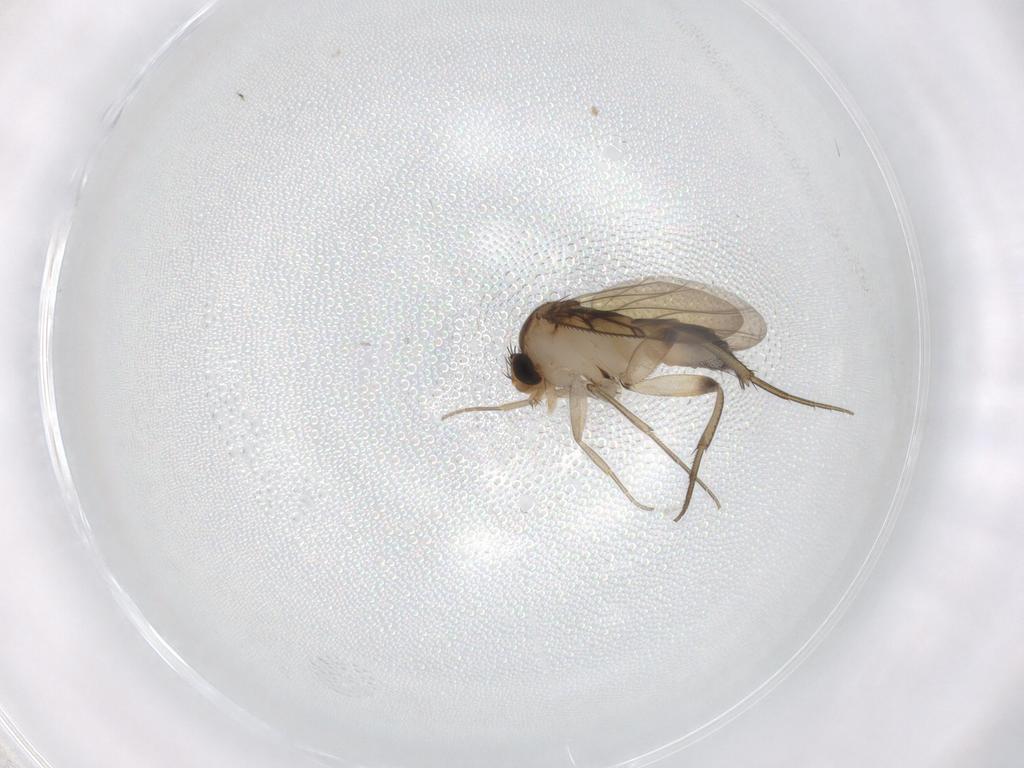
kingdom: Animalia
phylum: Arthropoda
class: Insecta
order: Diptera
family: Phoridae
